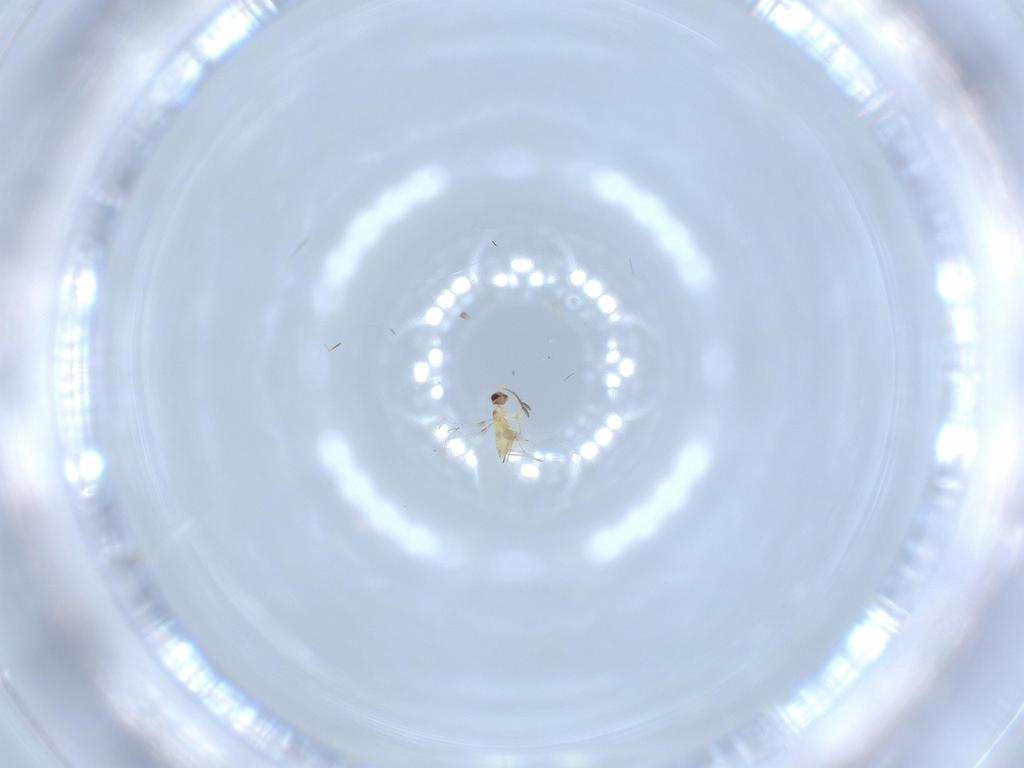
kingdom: Animalia
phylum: Arthropoda
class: Insecta
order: Hymenoptera
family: Mymaridae
